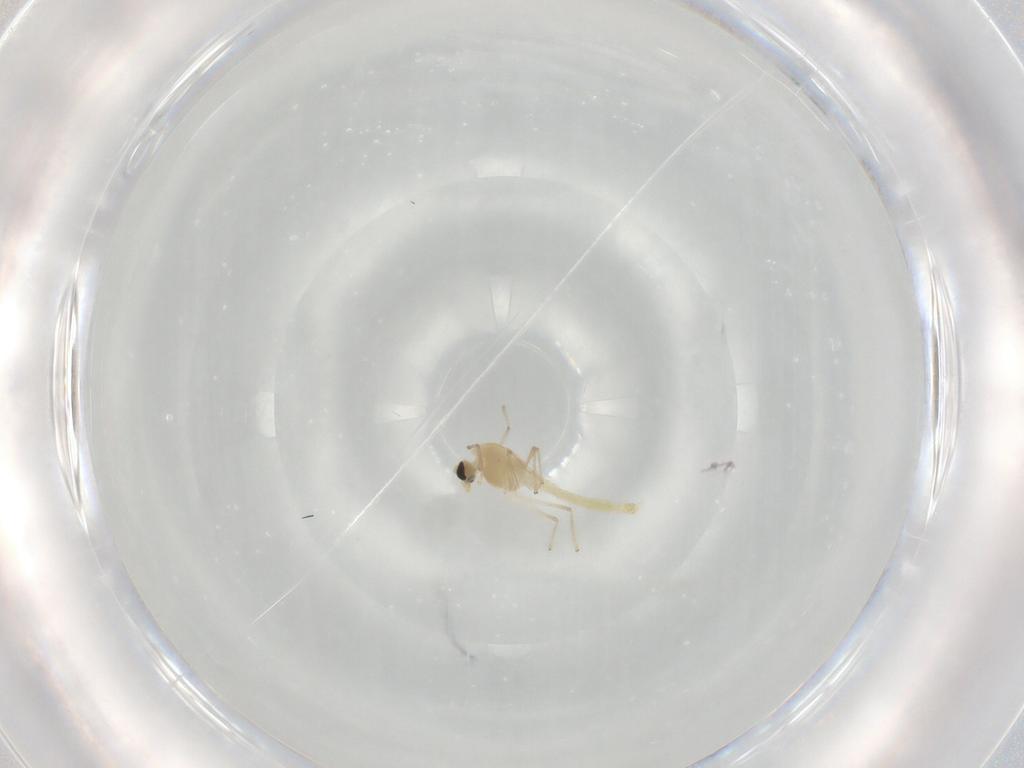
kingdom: Animalia
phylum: Arthropoda
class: Insecta
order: Diptera
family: Chironomidae
